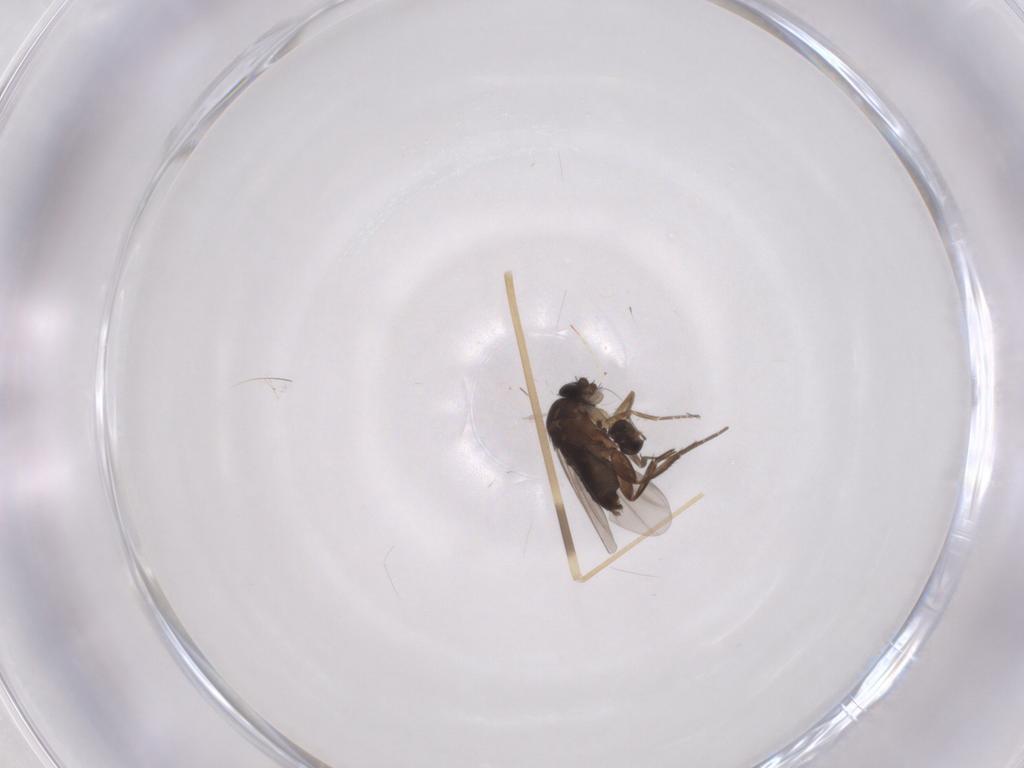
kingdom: Animalia
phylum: Arthropoda
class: Insecta
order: Diptera
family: Phoridae
